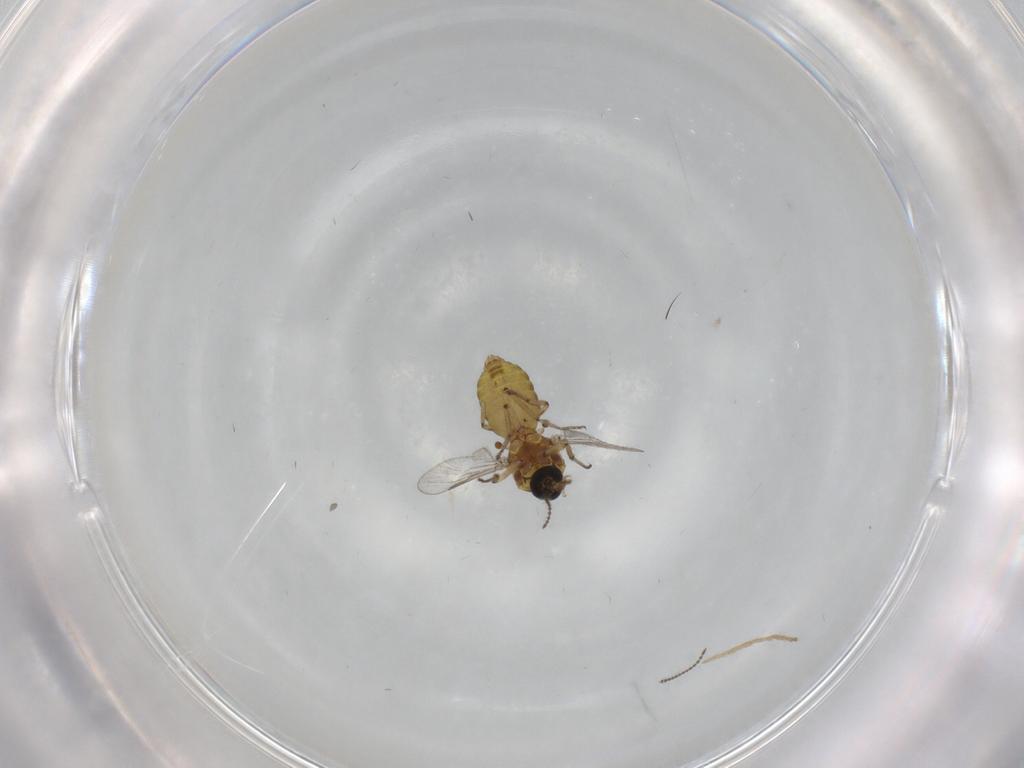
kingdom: Animalia
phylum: Arthropoda
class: Insecta
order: Diptera
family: Ceratopogonidae
